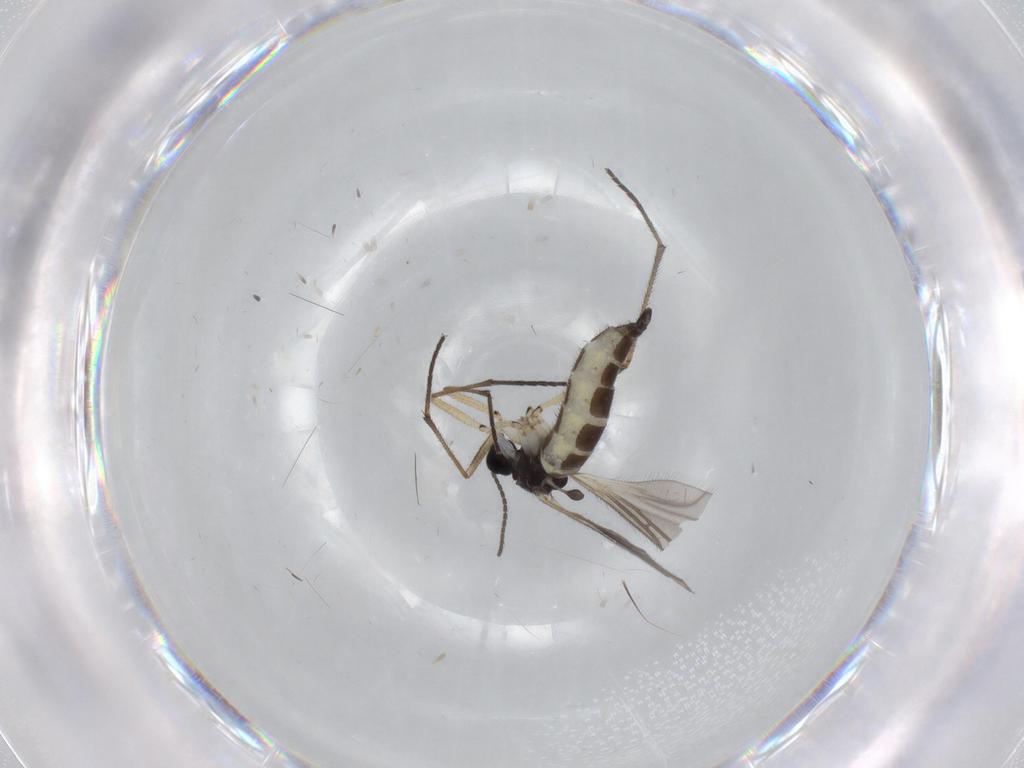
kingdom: Animalia
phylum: Arthropoda
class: Insecta
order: Diptera
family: Sciaridae
